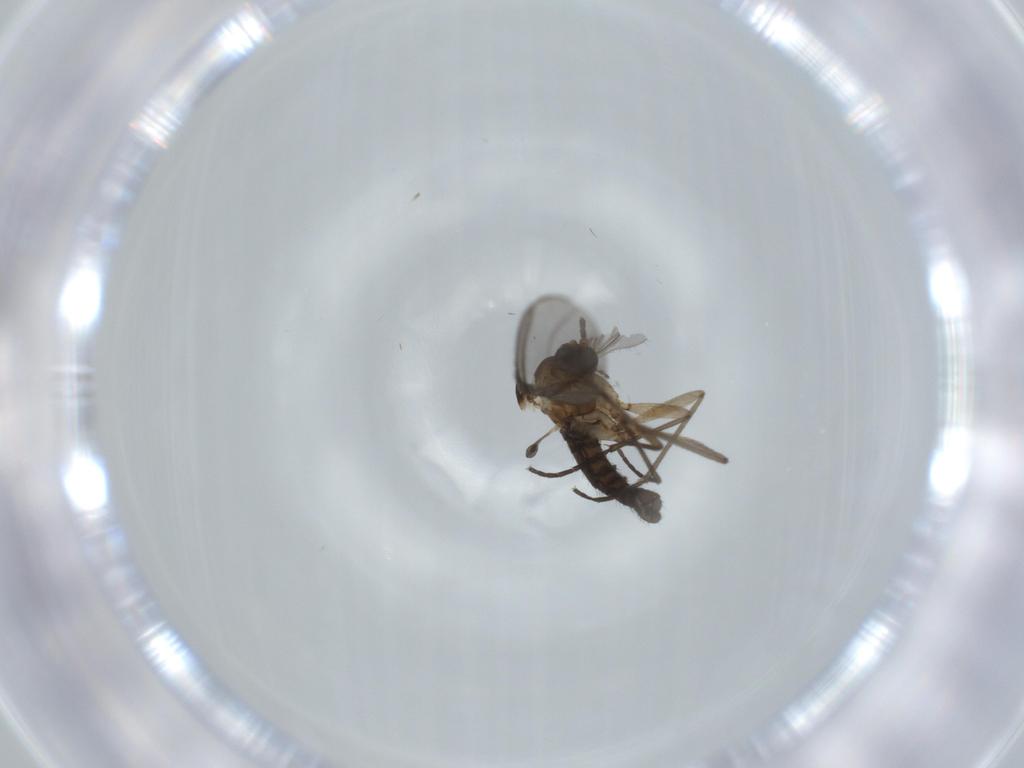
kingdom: Animalia
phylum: Arthropoda
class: Insecta
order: Diptera
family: Sciaridae
